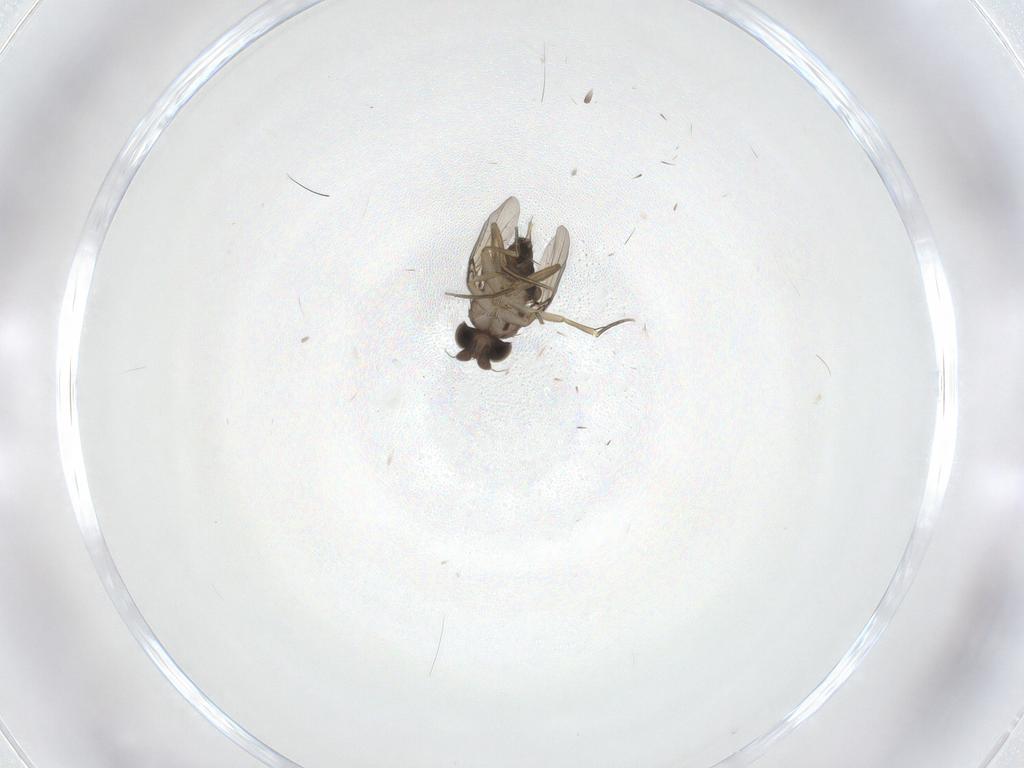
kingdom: Animalia
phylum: Arthropoda
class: Insecta
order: Diptera
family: Phoridae
